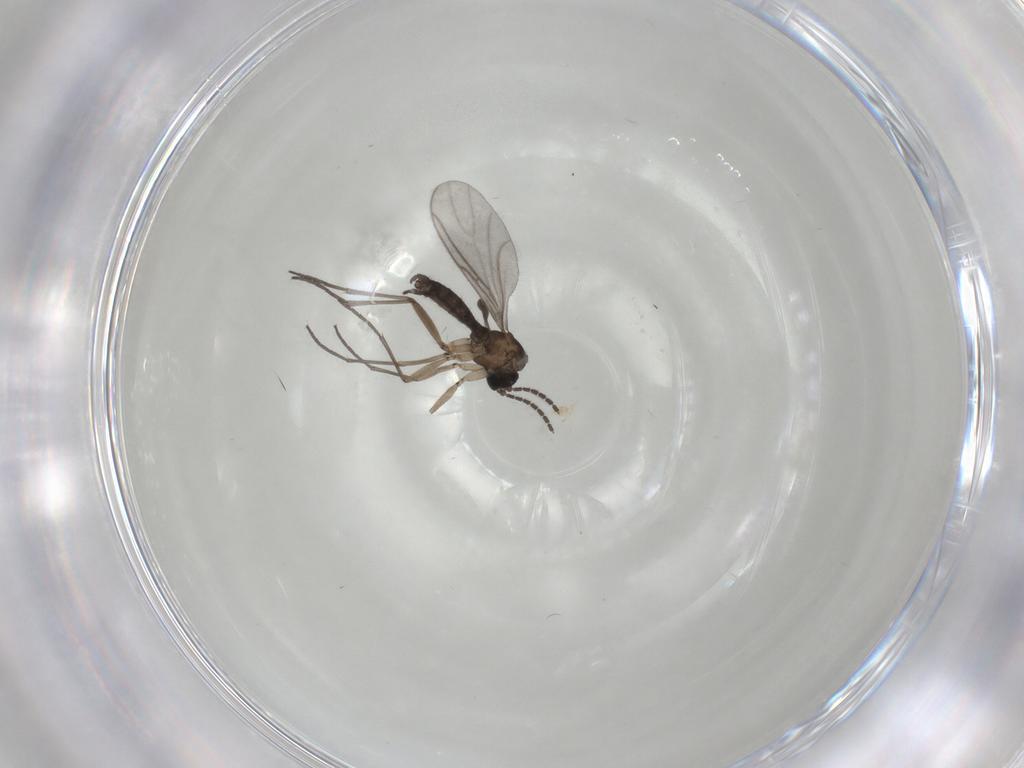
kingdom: Animalia
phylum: Arthropoda
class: Insecta
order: Diptera
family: Sciaridae
